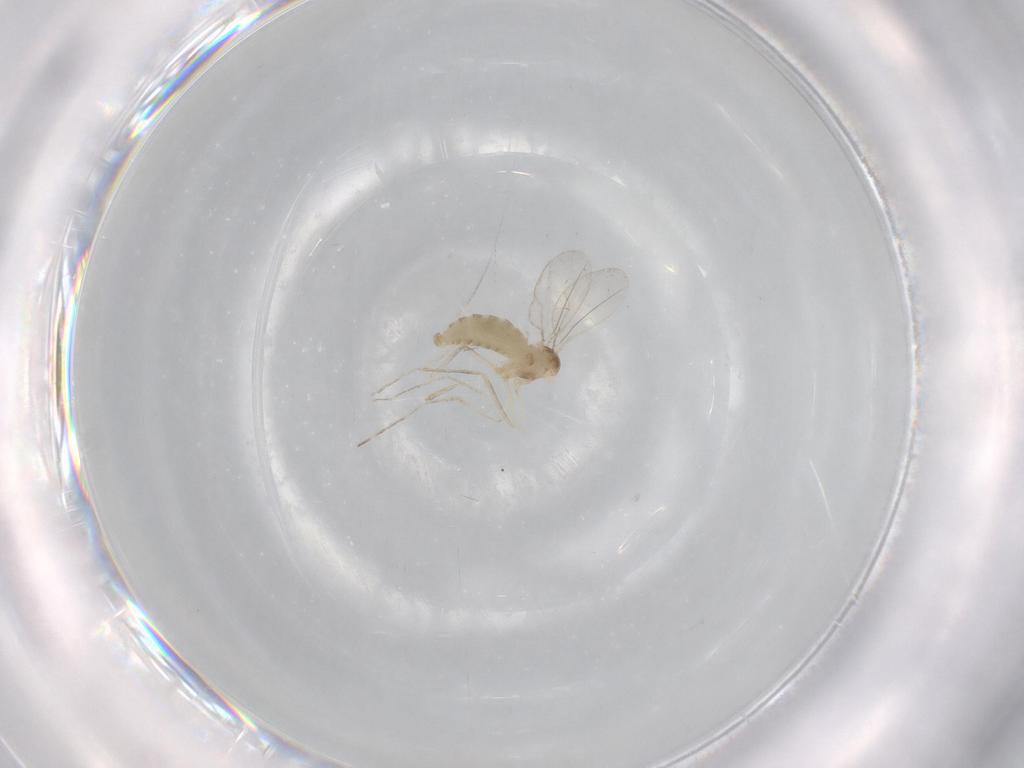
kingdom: Animalia
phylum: Arthropoda
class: Insecta
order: Diptera
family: Cecidomyiidae
